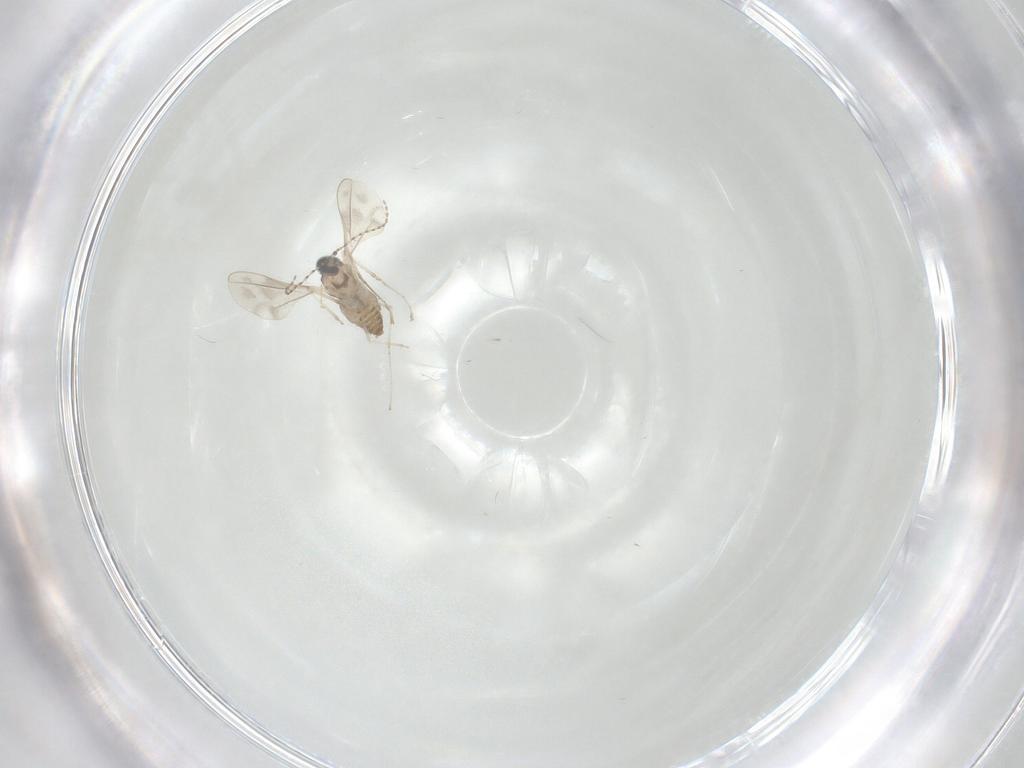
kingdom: Animalia
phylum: Arthropoda
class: Insecta
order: Diptera
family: Cecidomyiidae
